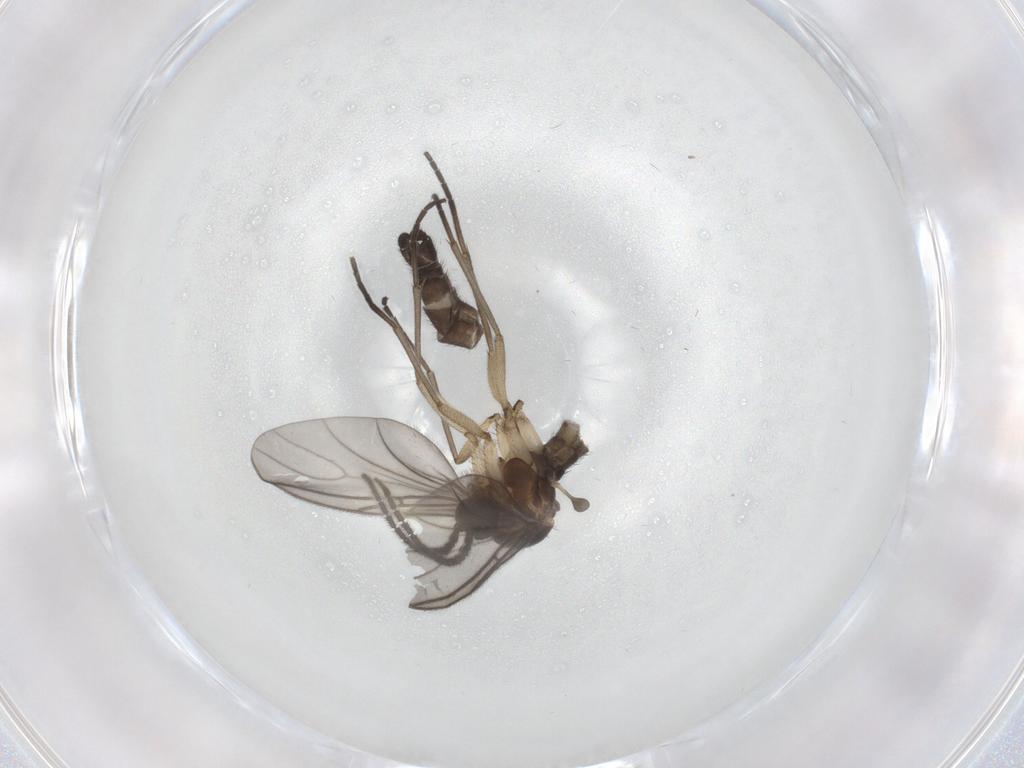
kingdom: Animalia
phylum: Arthropoda
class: Insecta
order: Diptera
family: Sciaridae
